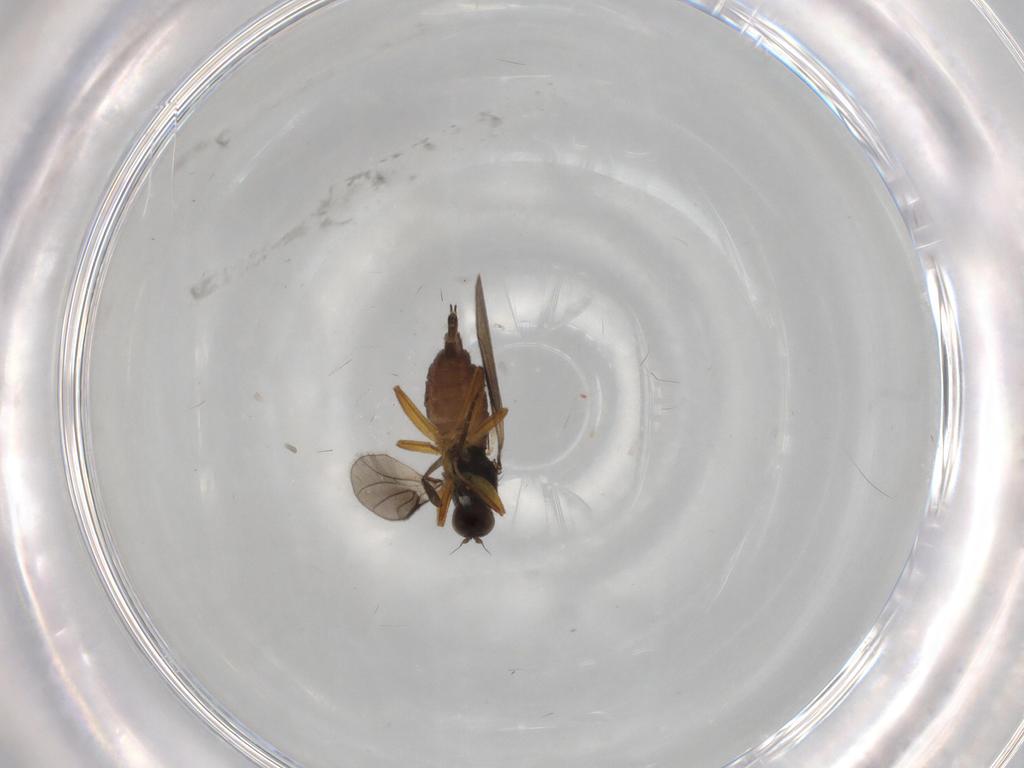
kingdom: Animalia
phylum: Arthropoda
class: Insecta
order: Diptera
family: Hybotidae
